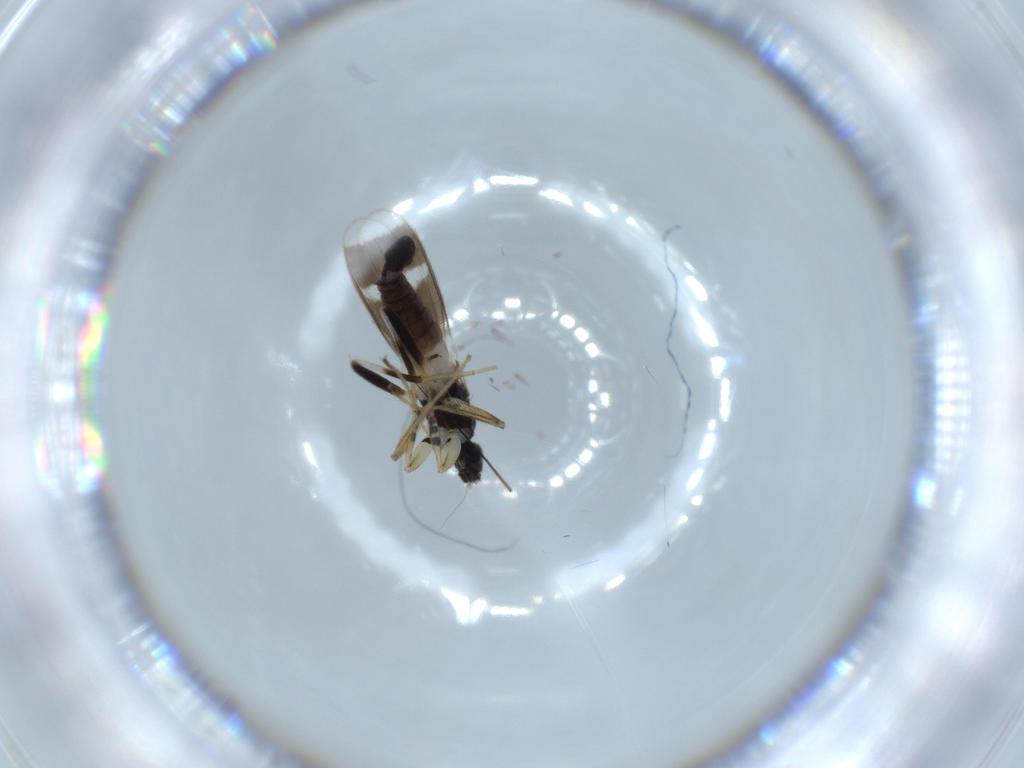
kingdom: Animalia
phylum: Arthropoda
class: Insecta
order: Diptera
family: Hybotidae
